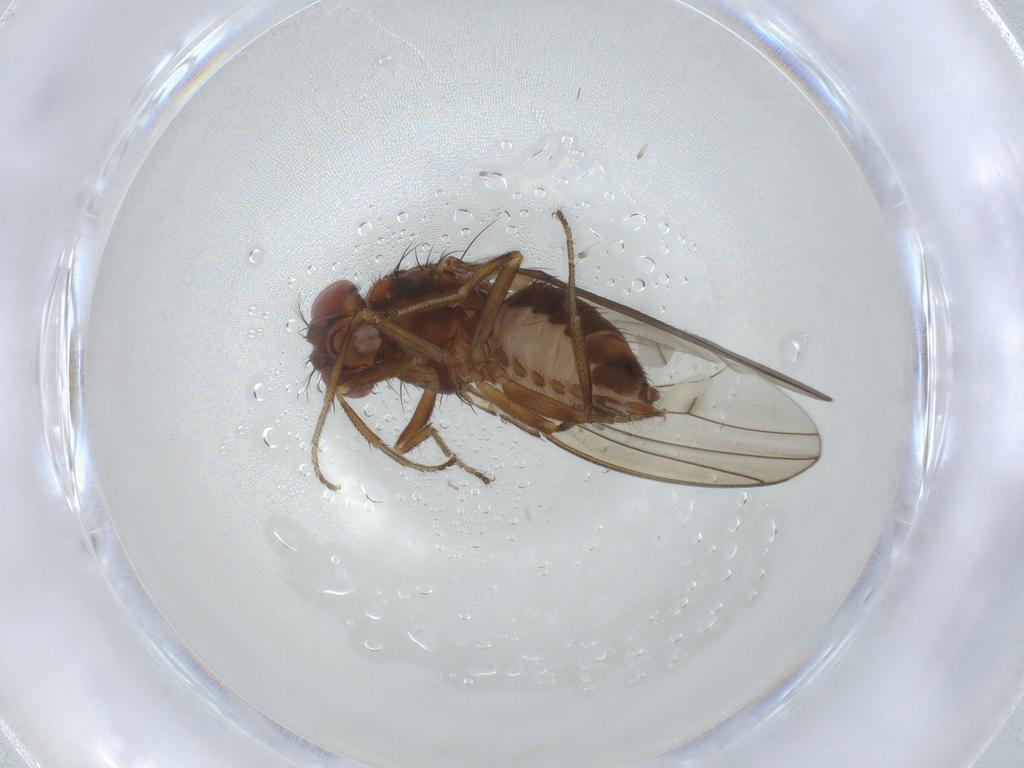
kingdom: Animalia
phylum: Arthropoda
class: Insecta
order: Diptera
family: Drosophilidae
